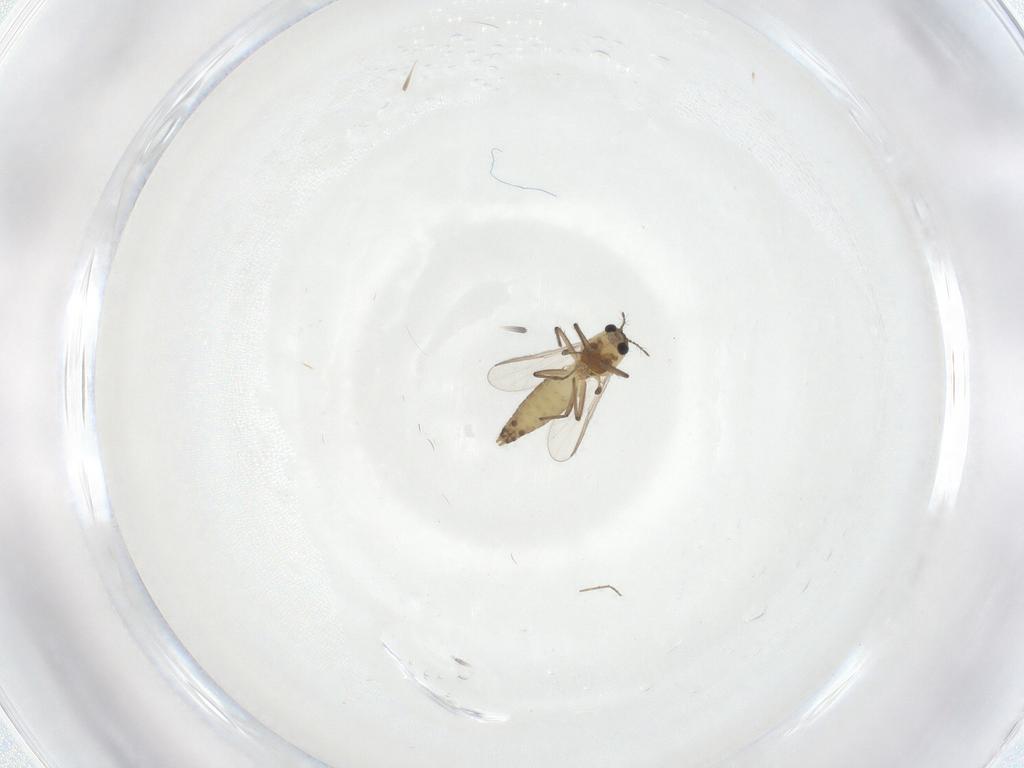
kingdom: Animalia
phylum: Arthropoda
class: Insecta
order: Diptera
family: Chironomidae
